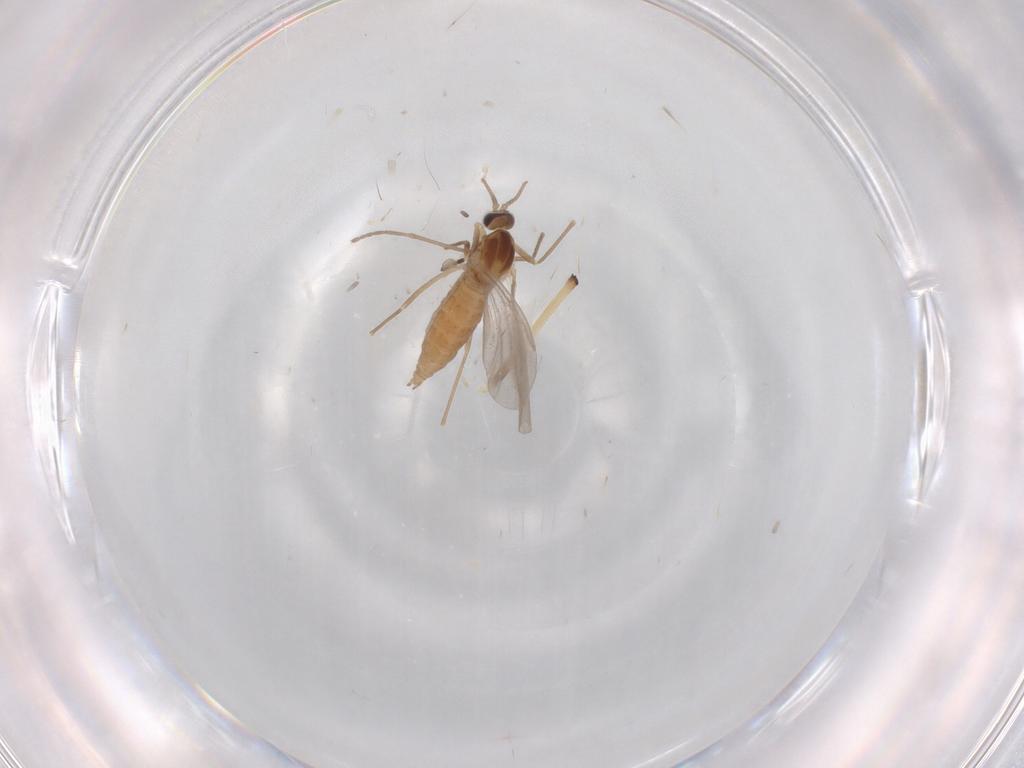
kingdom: Animalia
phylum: Arthropoda
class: Insecta
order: Diptera
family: Cecidomyiidae
